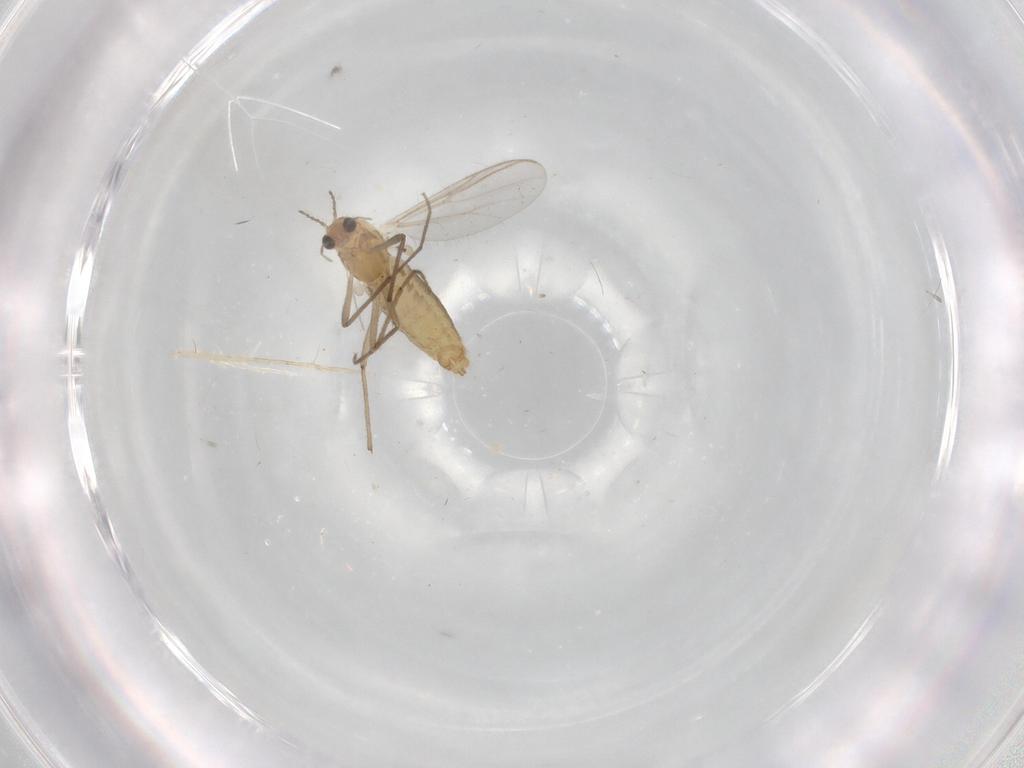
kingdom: Animalia
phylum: Arthropoda
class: Insecta
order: Diptera
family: Chironomidae
